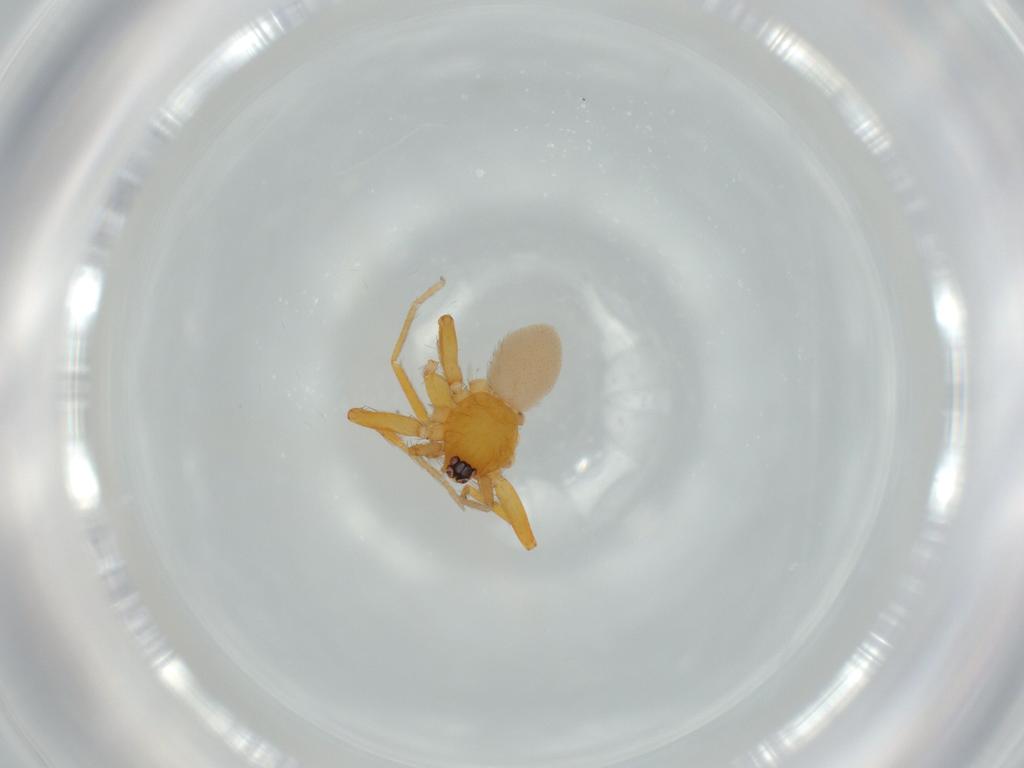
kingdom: Animalia
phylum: Arthropoda
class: Arachnida
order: Araneae
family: Oonopidae
